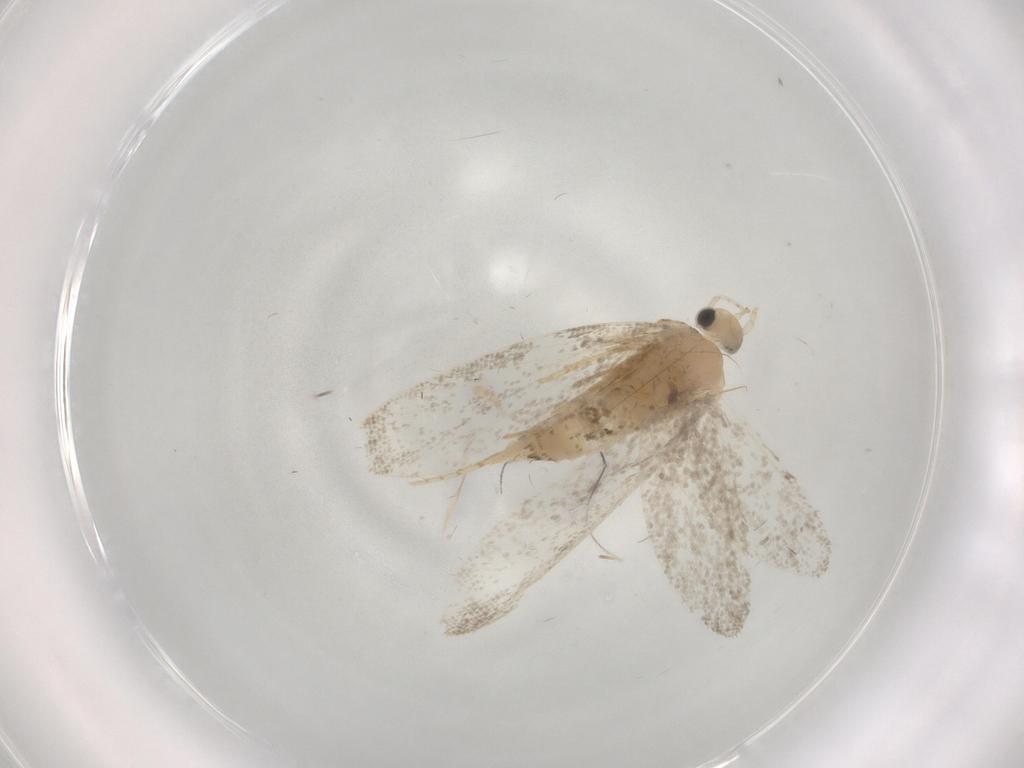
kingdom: Animalia
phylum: Arthropoda
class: Insecta
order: Lepidoptera
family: Psychidae
